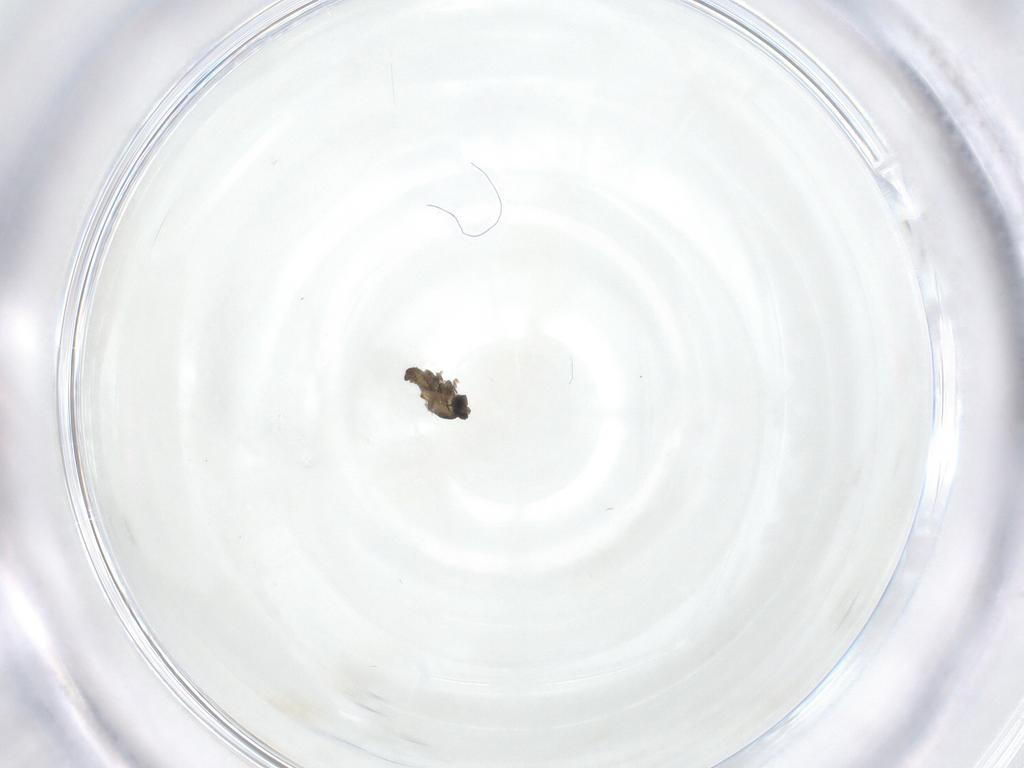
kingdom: Animalia
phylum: Arthropoda
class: Insecta
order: Diptera
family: Cecidomyiidae
